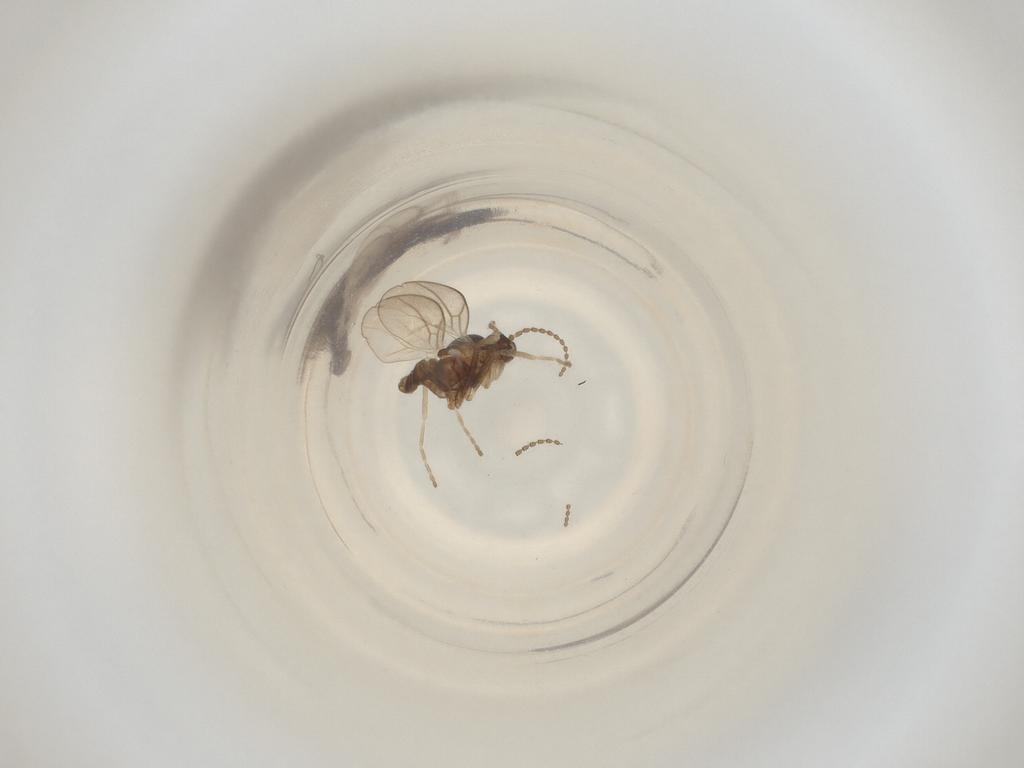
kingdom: Animalia
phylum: Arthropoda
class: Insecta
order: Diptera
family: Cecidomyiidae
